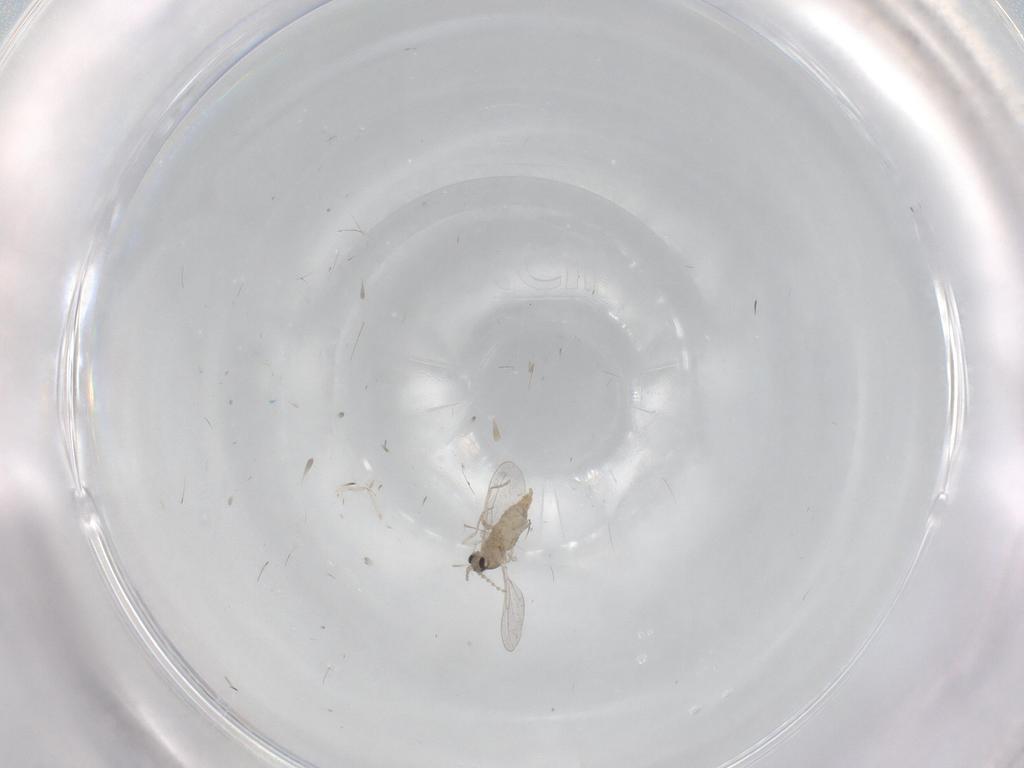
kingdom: Animalia
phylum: Arthropoda
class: Insecta
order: Diptera
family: Cecidomyiidae
